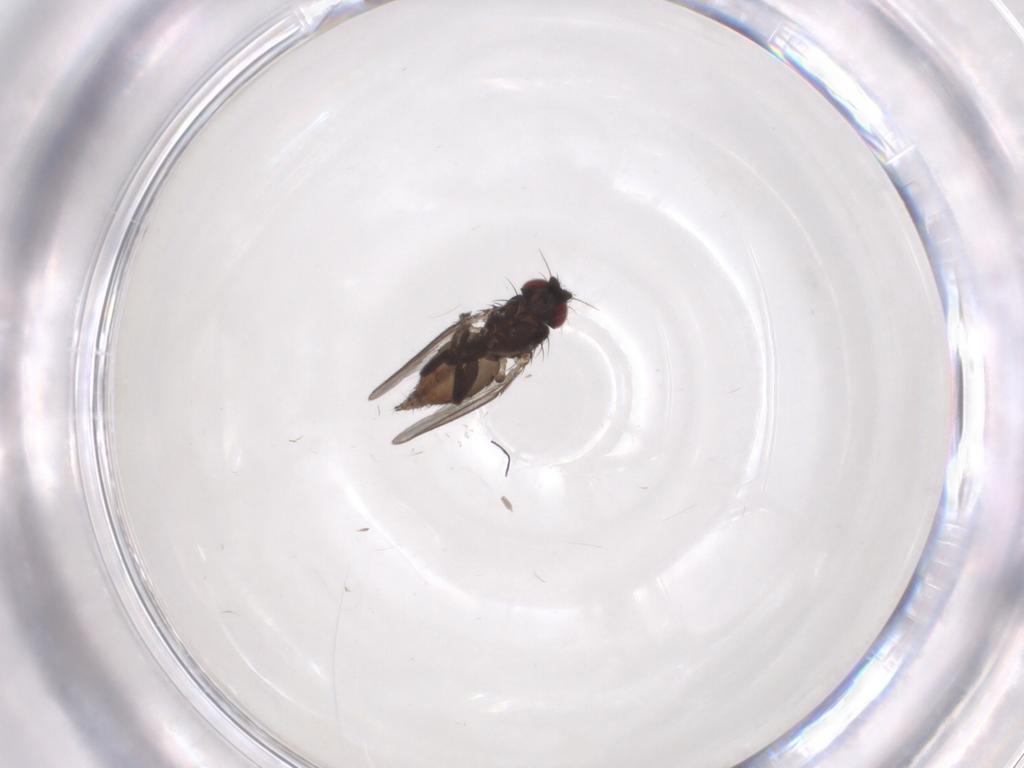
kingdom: Animalia
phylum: Arthropoda
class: Insecta
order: Diptera
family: Milichiidae
